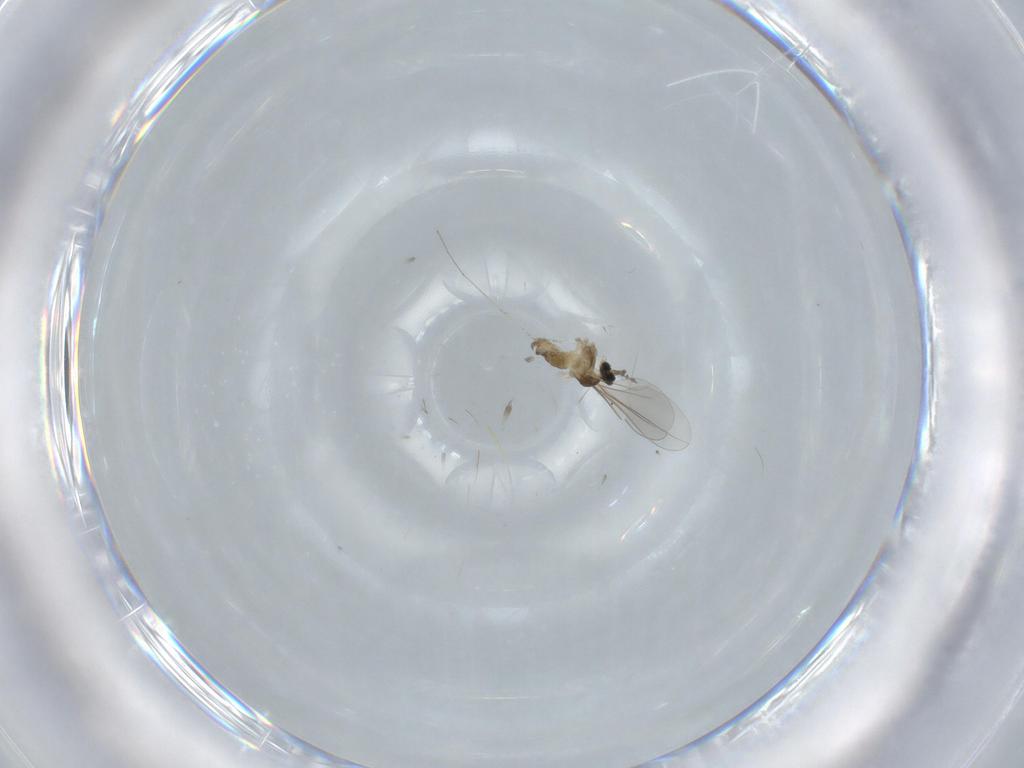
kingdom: Animalia
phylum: Arthropoda
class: Insecta
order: Diptera
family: Cecidomyiidae
